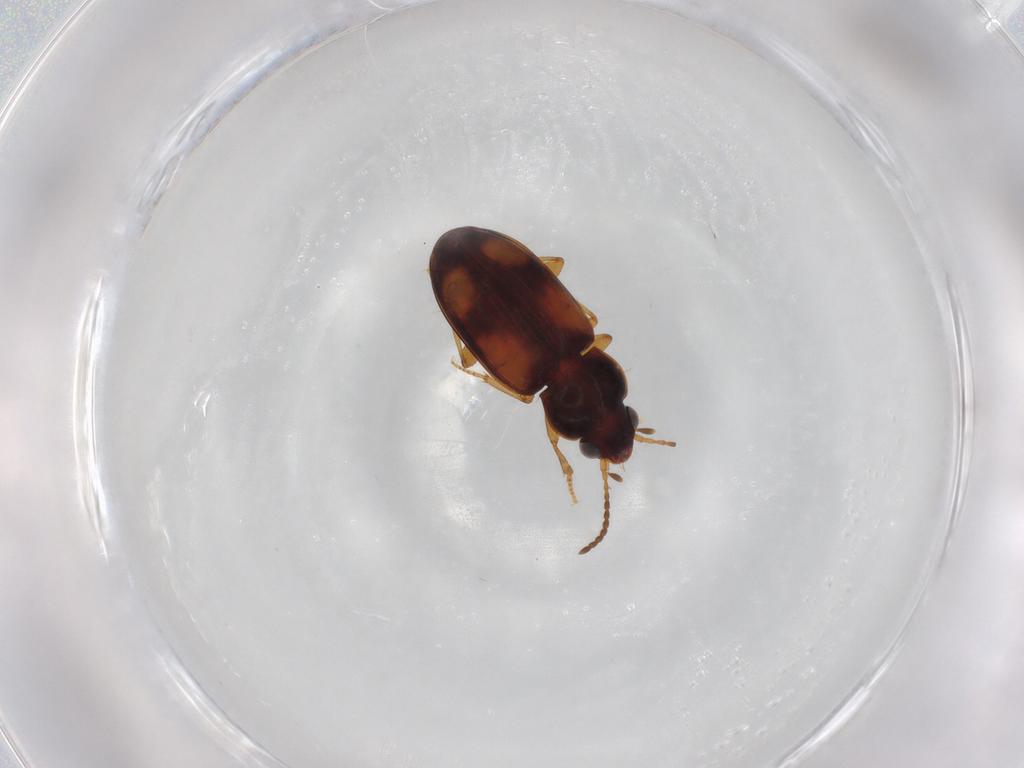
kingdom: Animalia
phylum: Arthropoda
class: Insecta
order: Coleoptera
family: Carabidae
